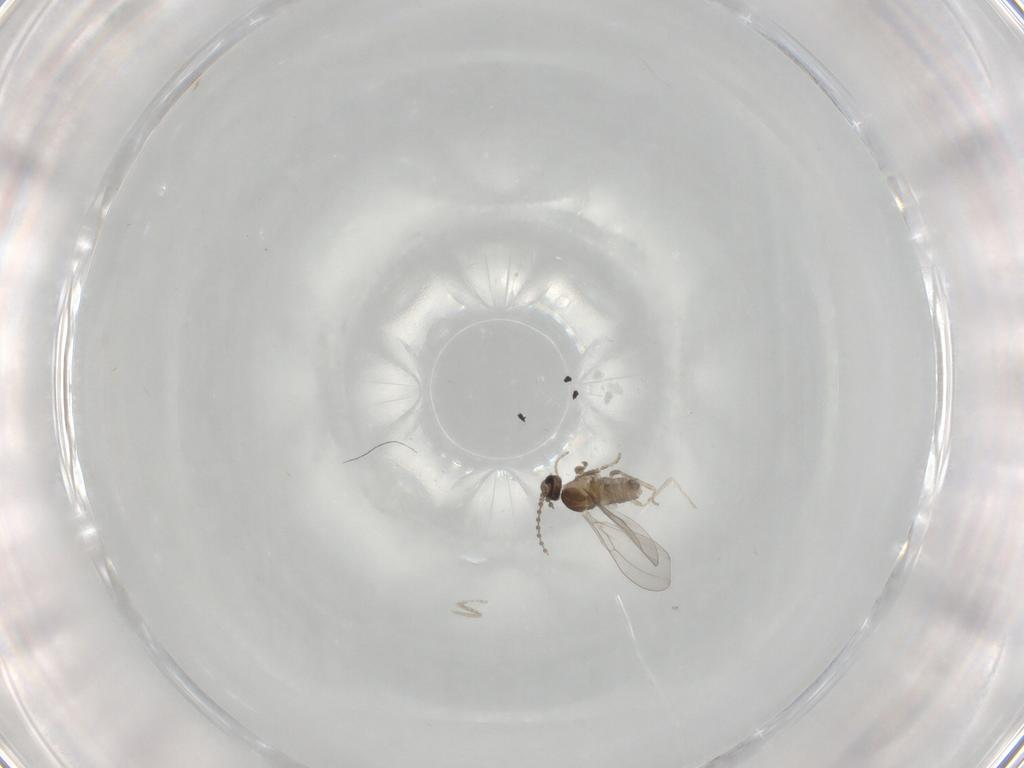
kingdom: Animalia
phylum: Arthropoda
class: Insecta
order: Diptera
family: Cecidomyiidae
